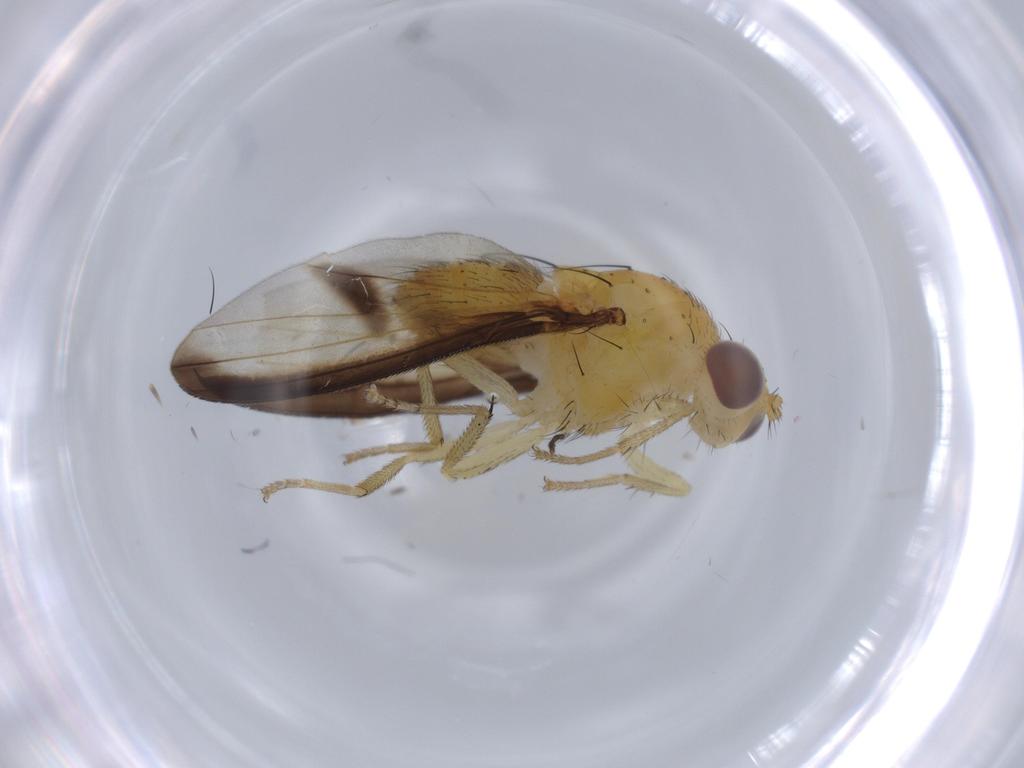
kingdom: Animalia
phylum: Arthropoda
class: Insecta
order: Diptera
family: Lauxaniidae
